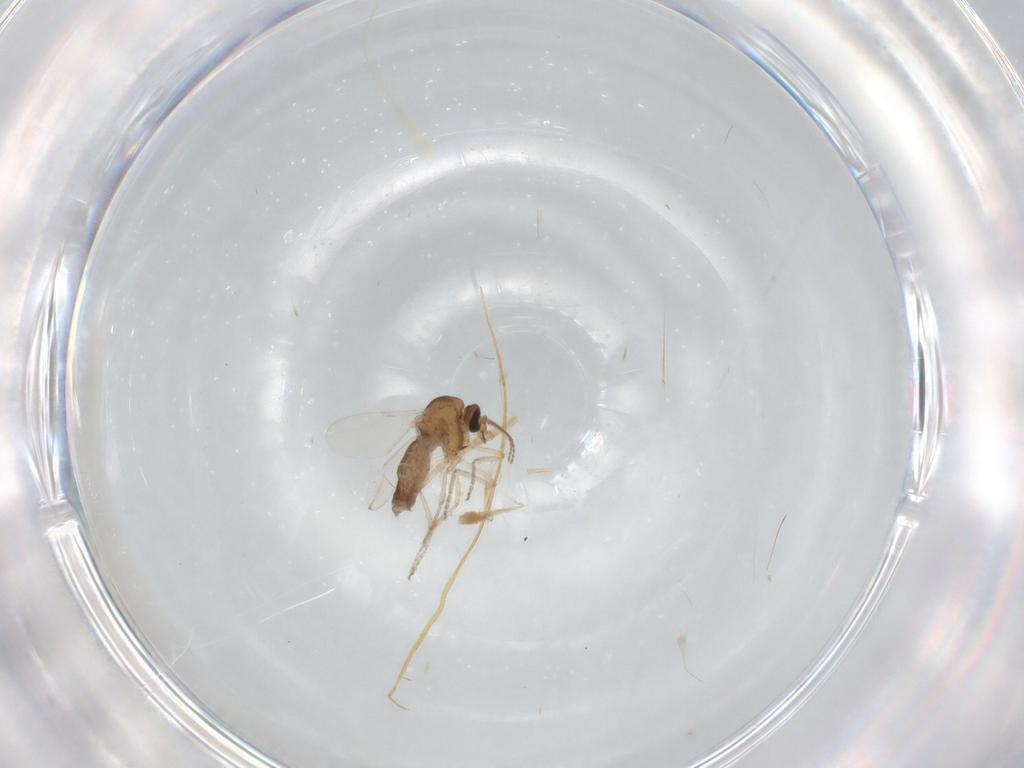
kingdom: Animalia
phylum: Arthropoda
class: Insecta
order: Diptera
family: Ceratopogonidae
